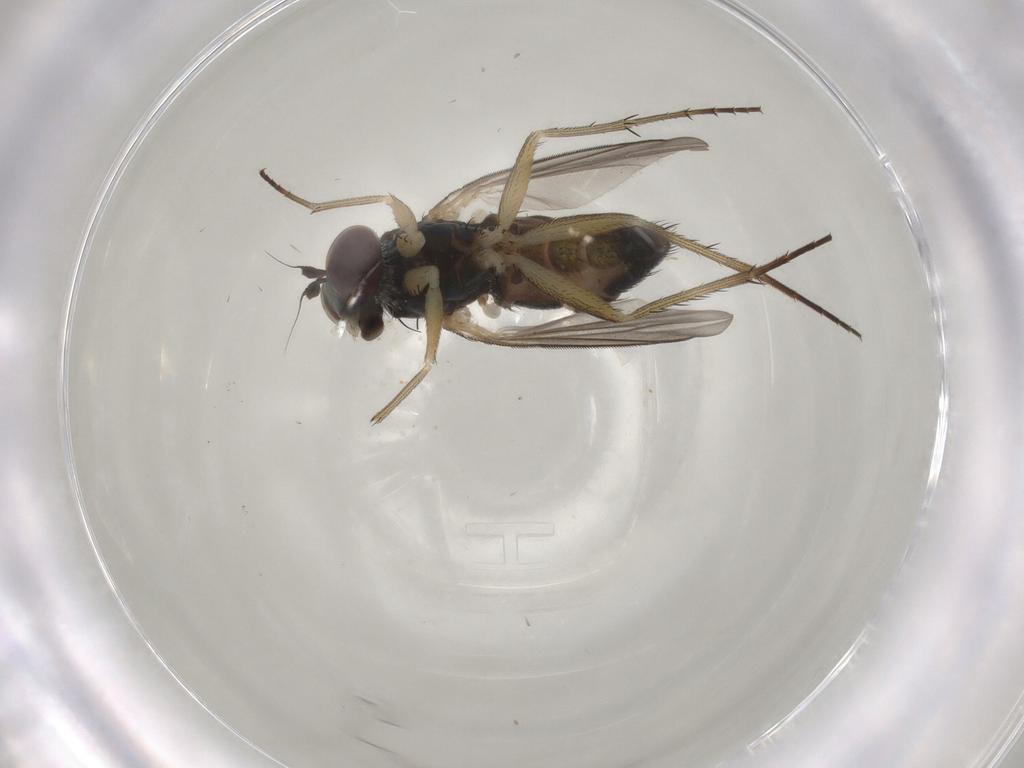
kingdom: Animalia
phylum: Arthropoda
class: Insecta
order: Diptera
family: Dolichopodidae
